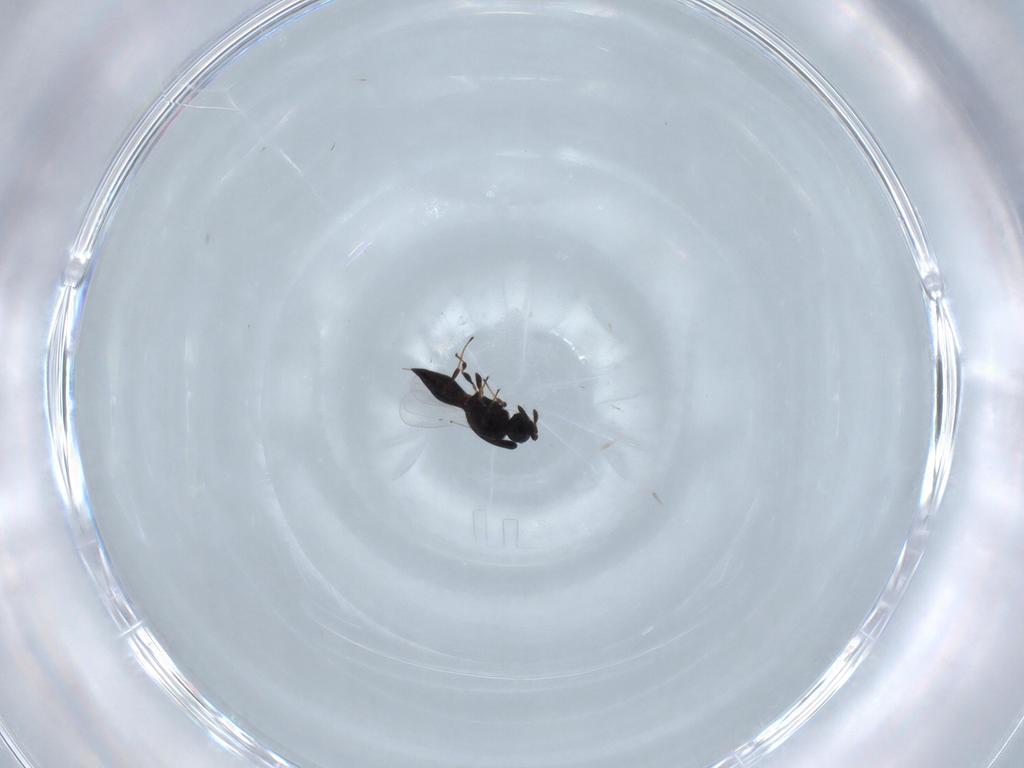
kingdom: Animalia
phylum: Arthropoda
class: Insecta
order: Hymenoptera
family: Platygastridae
